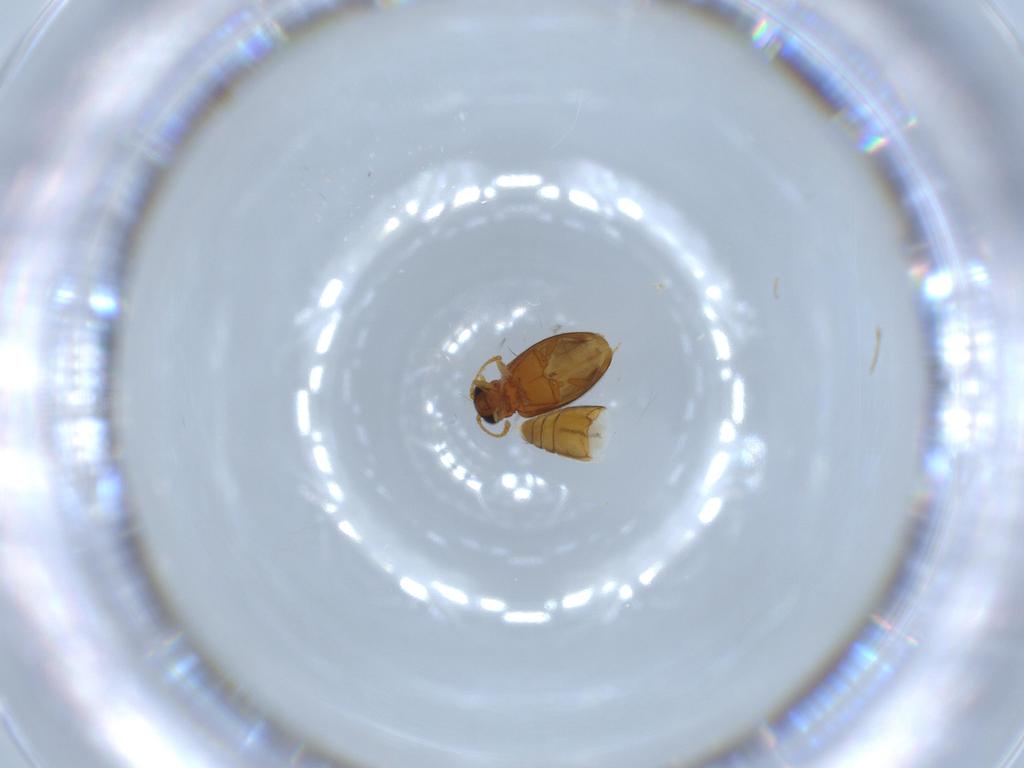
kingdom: Animalia
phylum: Arthropoda
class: Insecta
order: Coleoptera
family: Aderidae
